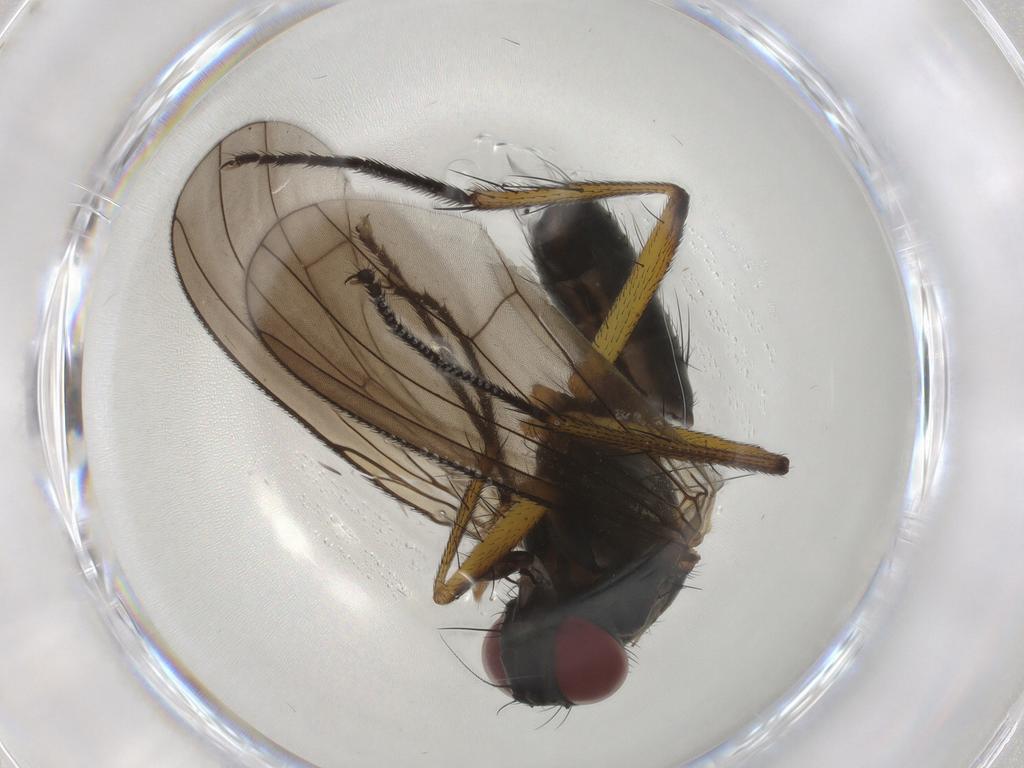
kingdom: Animalia
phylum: Arthropoda
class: Insecta
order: Diptera
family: Muscidae
